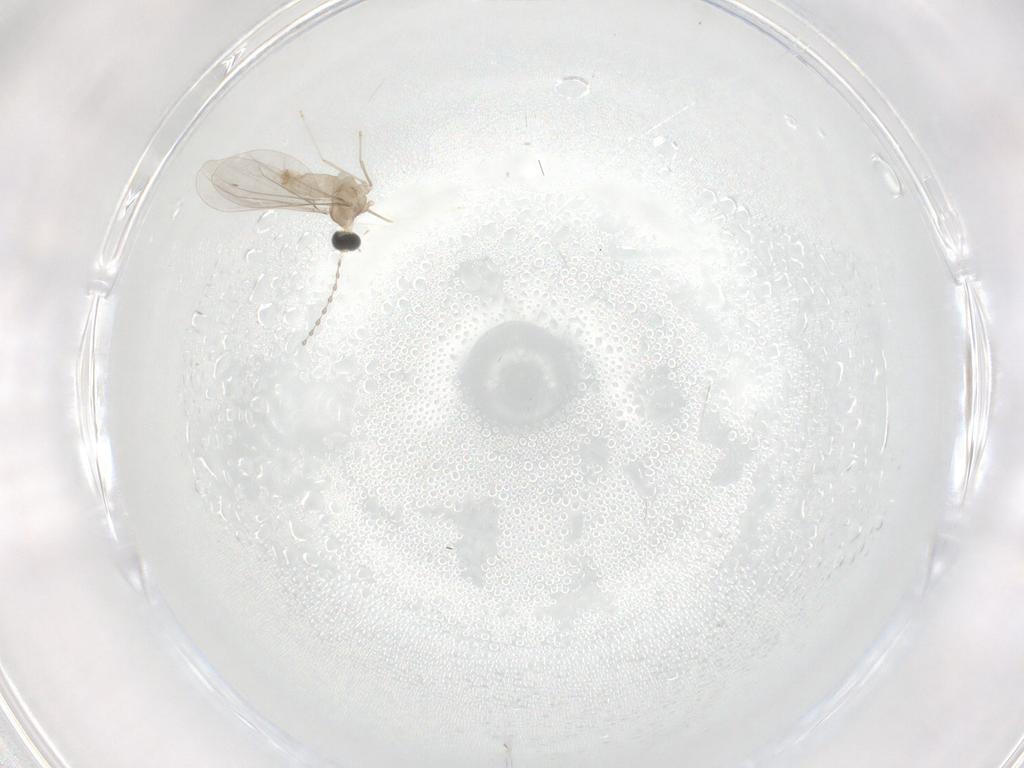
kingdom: Animalia
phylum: Arthropoda
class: Insecta
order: Diptera
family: Cecidomyiidae
